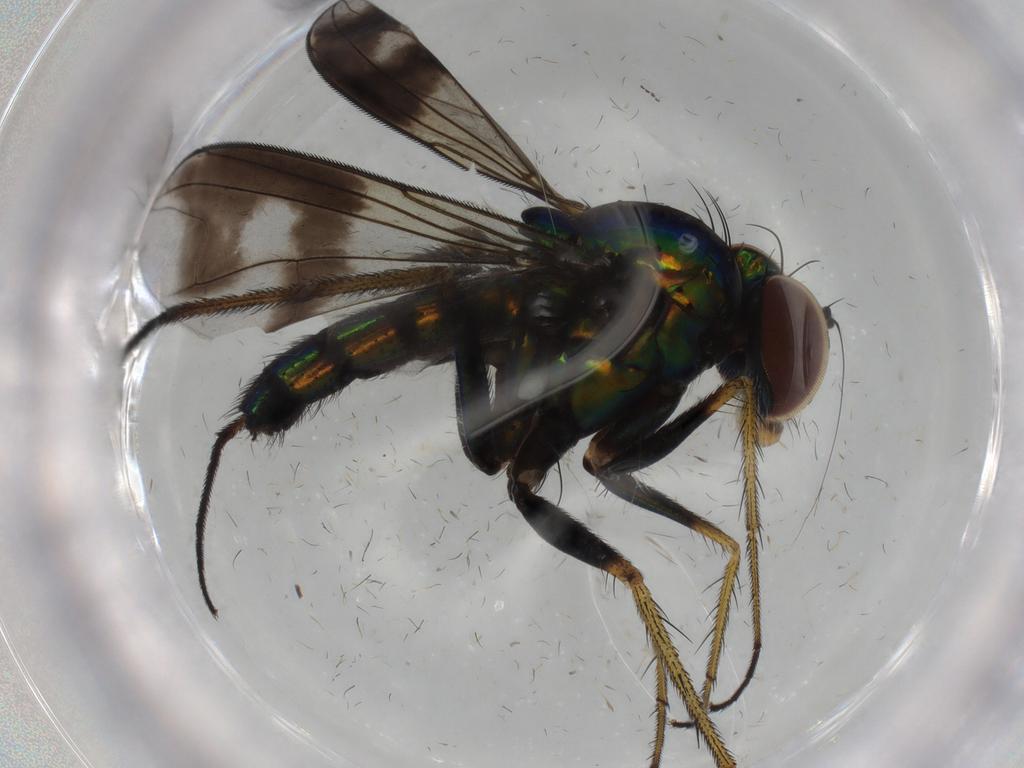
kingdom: Animalia
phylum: Arthropoda
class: Insecta
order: Diptera
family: Dolichopodidae
